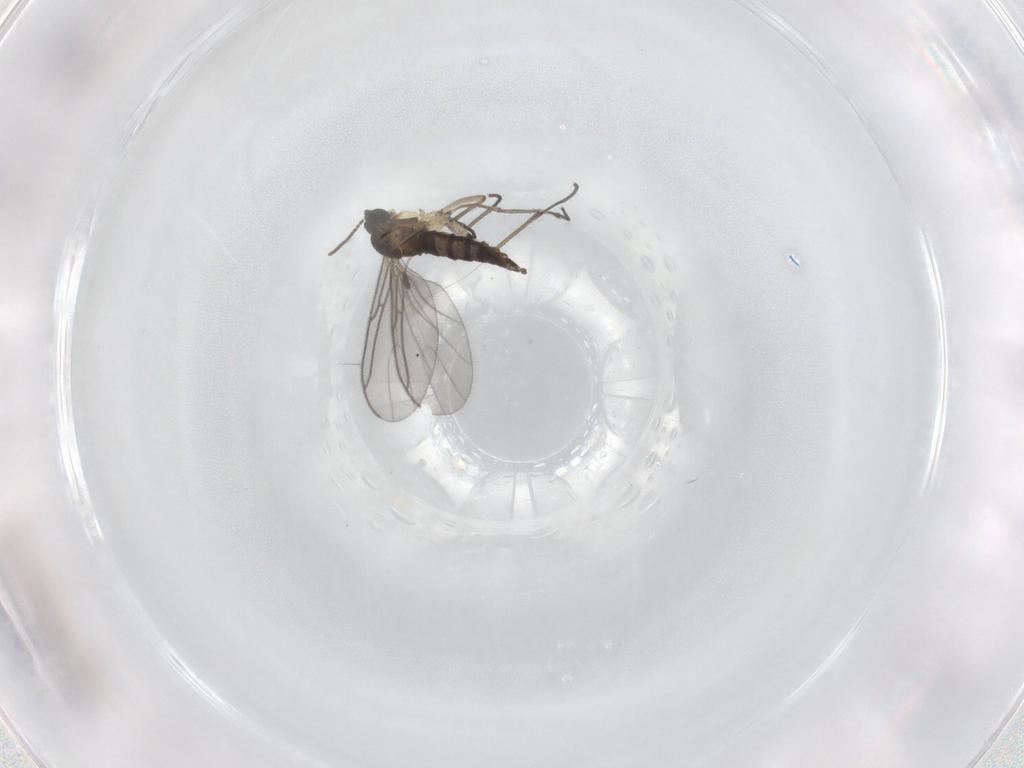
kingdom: Animalia
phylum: Arthropoda
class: Insecta
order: Diptera
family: Sciaridae
